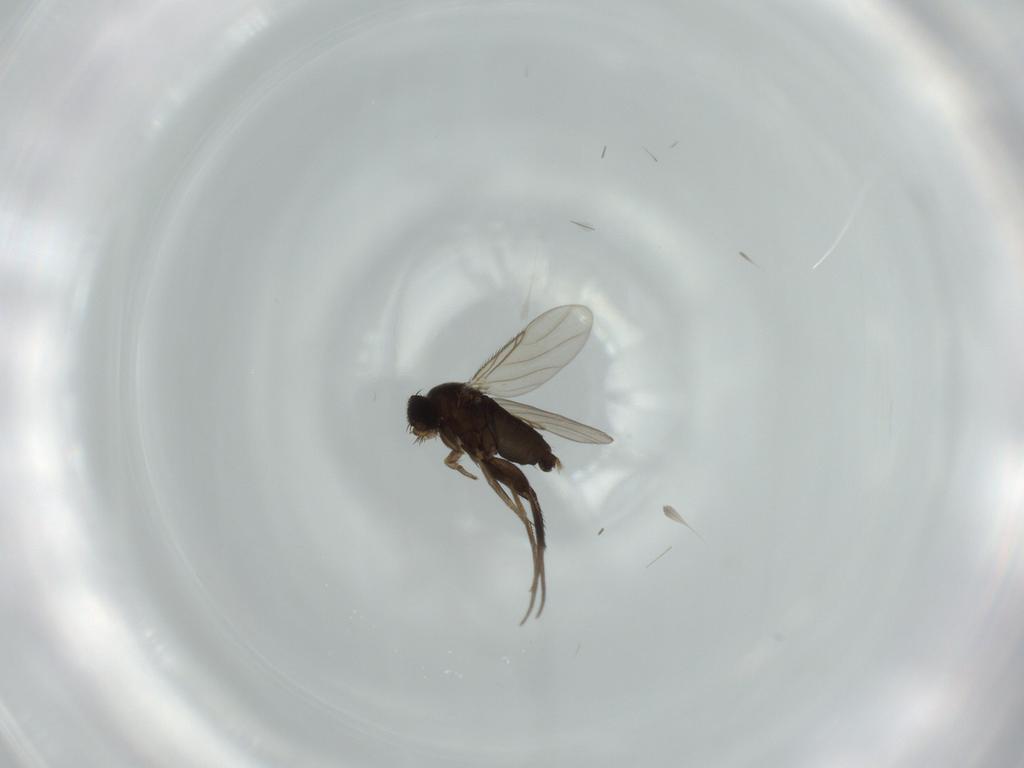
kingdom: Animalia
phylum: Arthropoda
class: Insecta
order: Diptera
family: Phoridae
